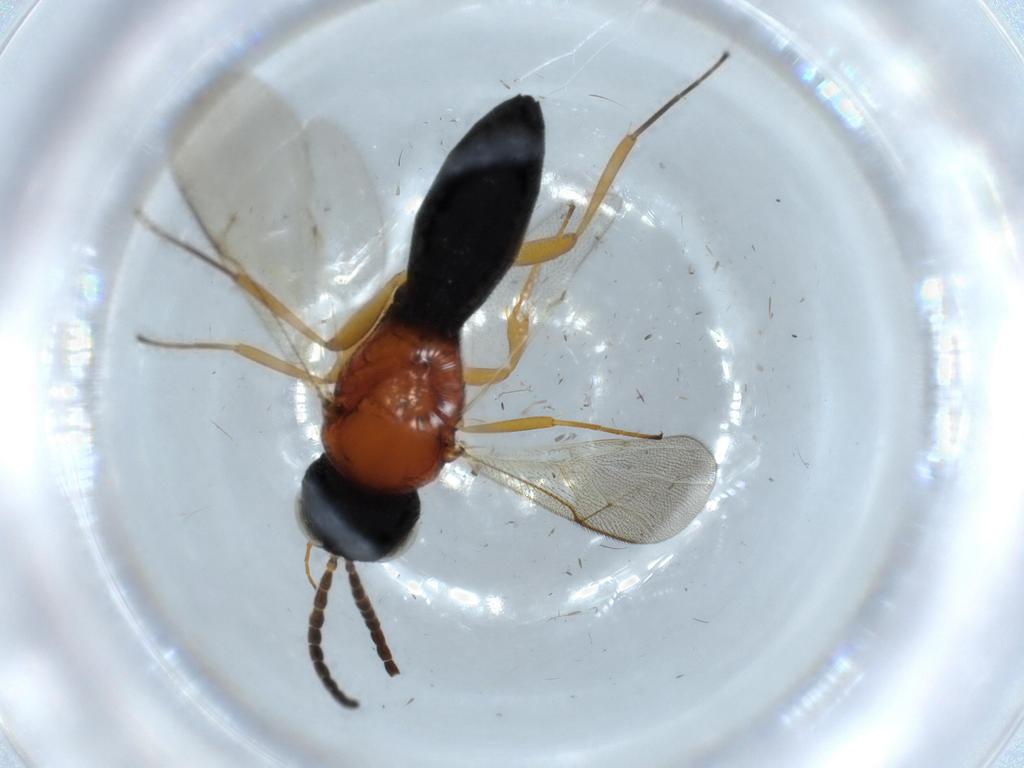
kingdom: Animalia
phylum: Arthropoda
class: Insecta
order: Hymenoptera
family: Scelionidae
